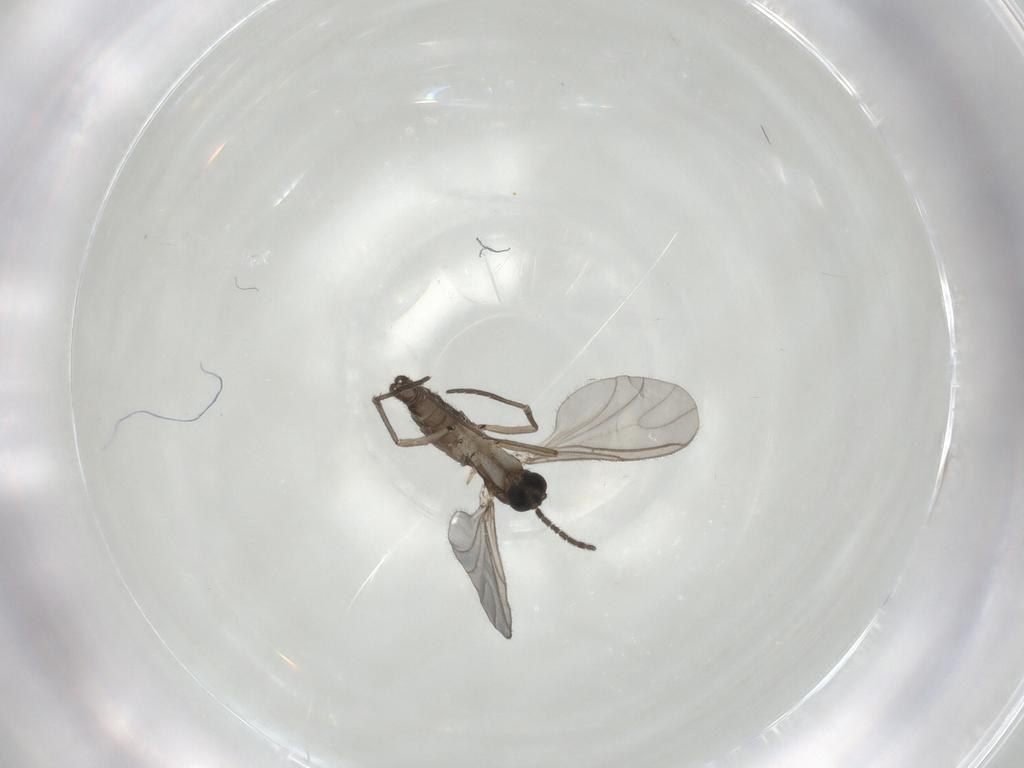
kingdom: Animalia
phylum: Arthropoda
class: Insecta
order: Diptera
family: Sciaridae
